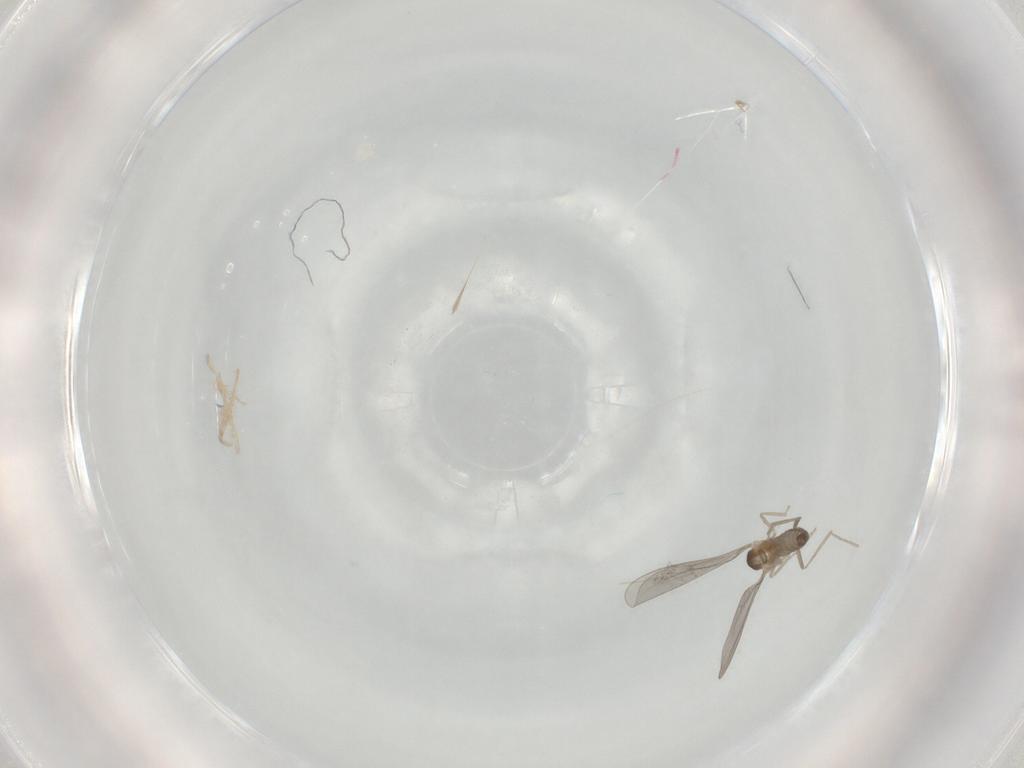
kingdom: Animalia
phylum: Arthropoda
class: Insecta
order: Diptera
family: Cecidomyiidae
